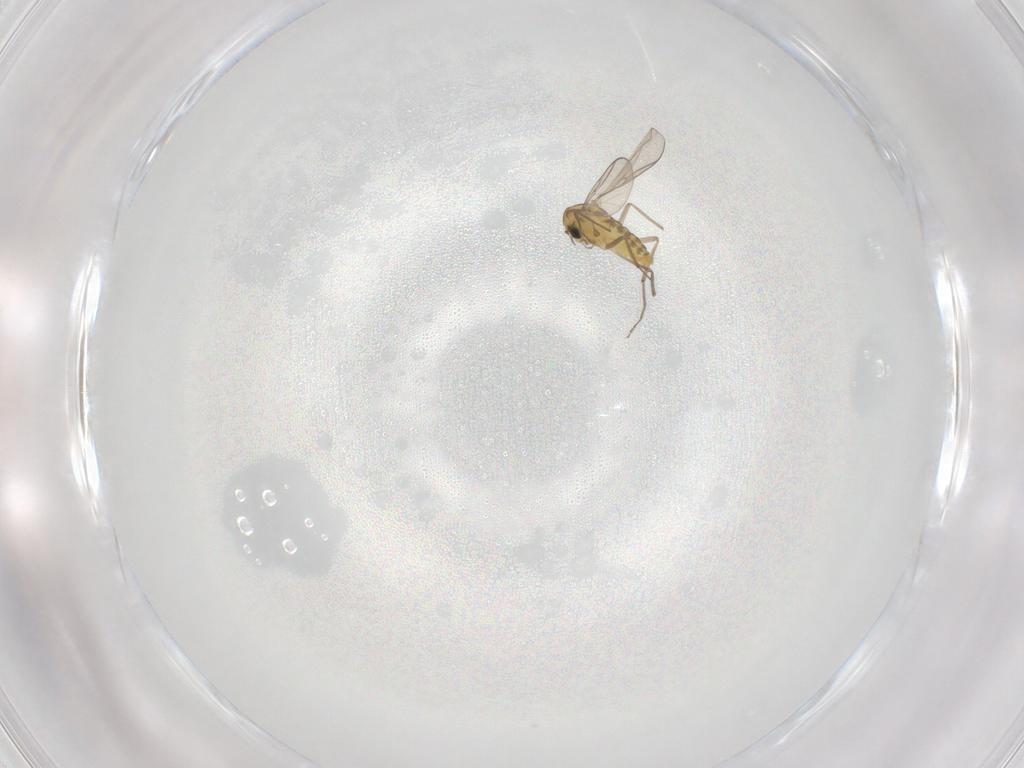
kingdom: Animalia
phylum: Arthropoda
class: Insecta
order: Diptera
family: Chironomidae
